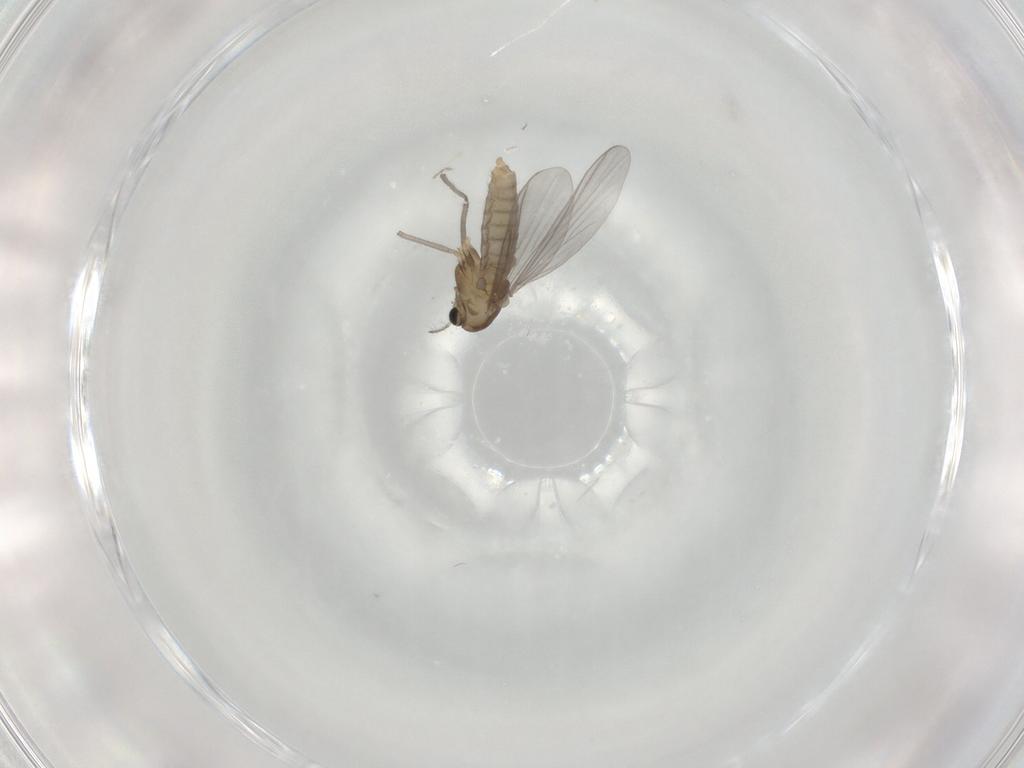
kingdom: Animalia
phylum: Arthropoda
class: Insecta
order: Diptera
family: Chironomidae
